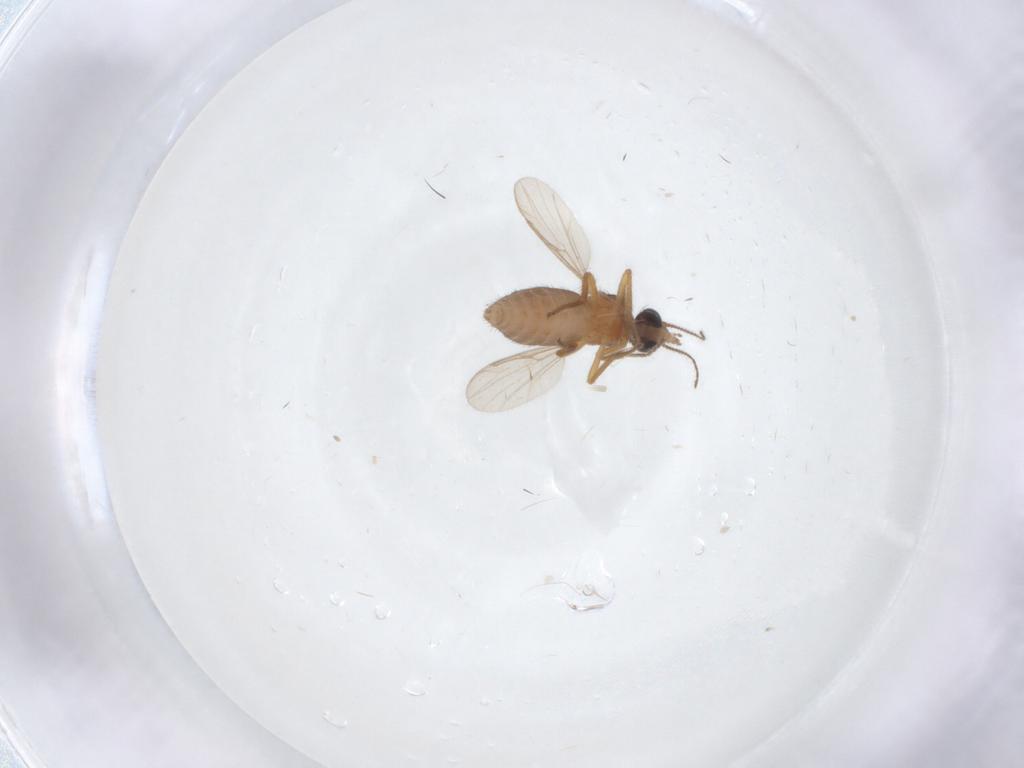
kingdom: Animalia
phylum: Arthropoda
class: Insecta
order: Diptera
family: Ceratopogonidae
